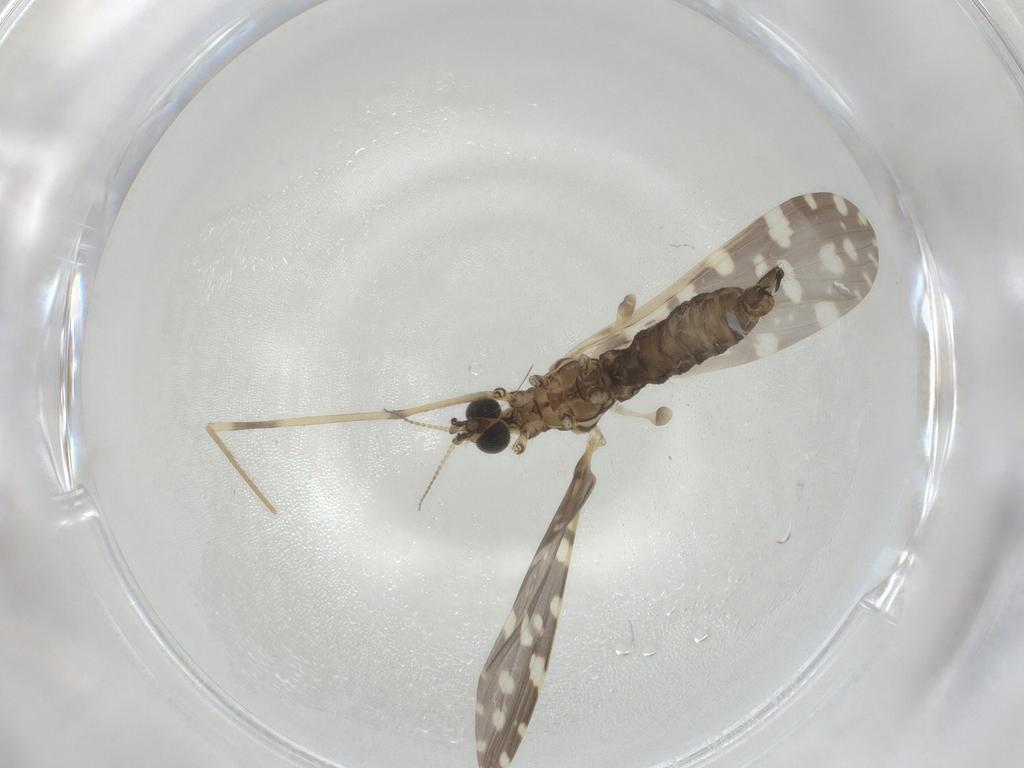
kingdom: Animalia
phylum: Arthropoda
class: Insecta
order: Diptera
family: Limoniidae
